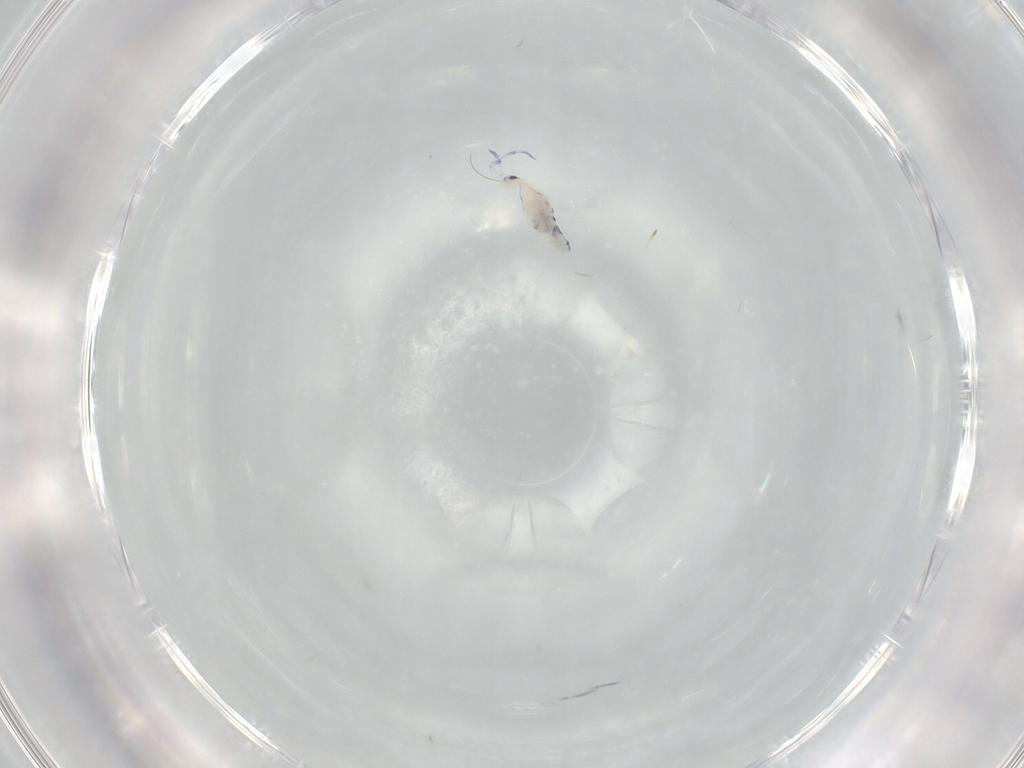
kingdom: Animalia
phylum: Arthropoda
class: Collembola
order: Entomobryomorpha
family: Entomobryidae
